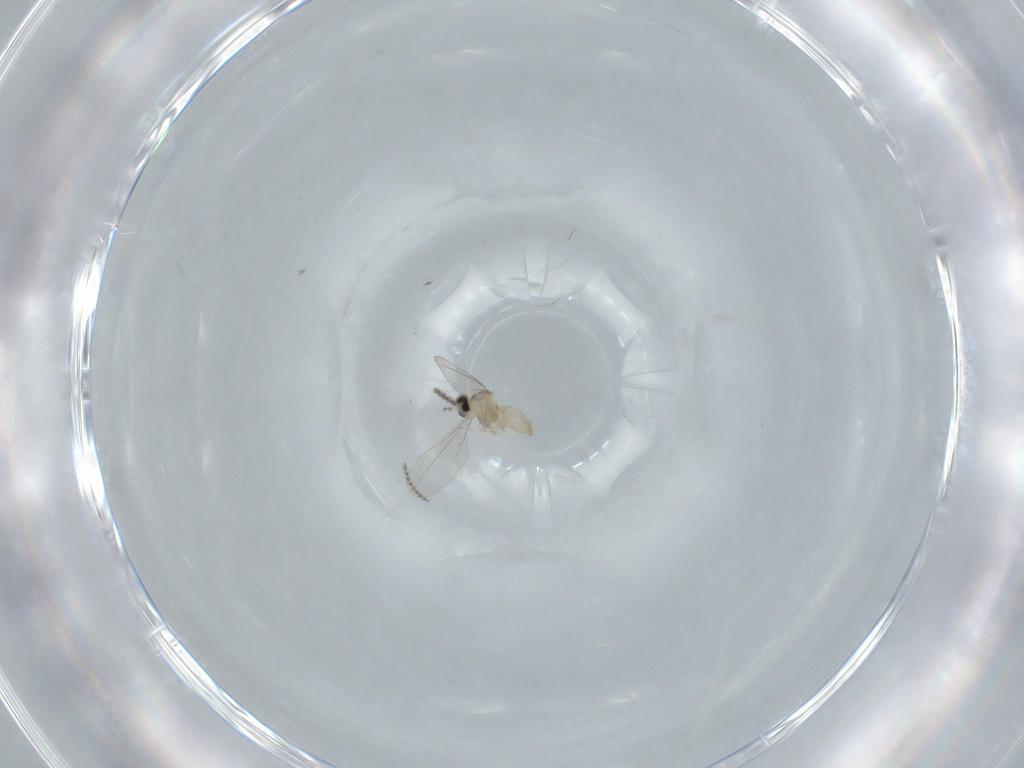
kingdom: Animalia
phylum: Arthropoda
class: Insecta
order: Diptera
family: Cecidomyiidae
